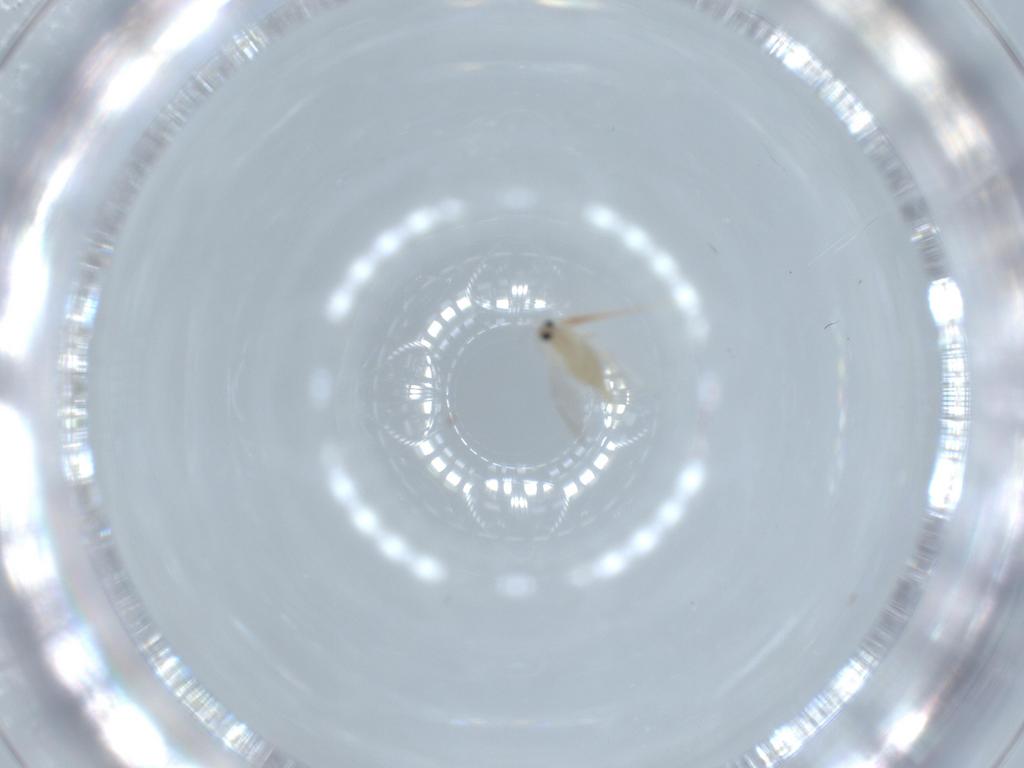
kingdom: Animalia
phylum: Arthropoda
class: Insecta
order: Diptera
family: Cecidomyiidae
